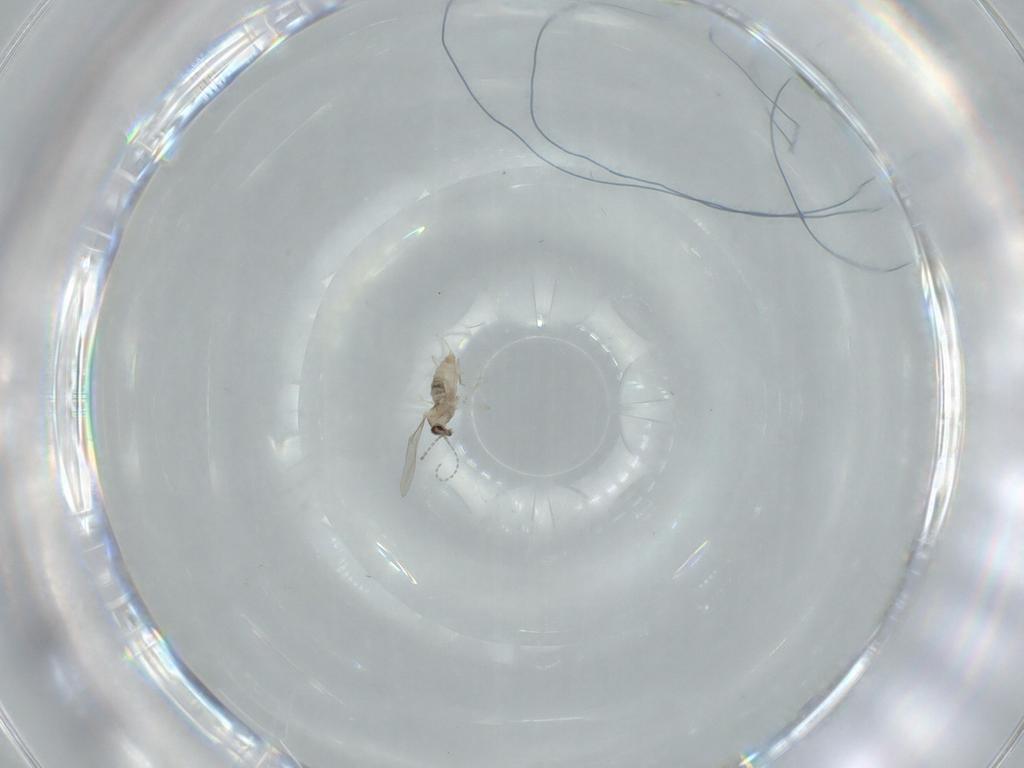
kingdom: Animalia
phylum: Arthropoda
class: Insecta
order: Diptera
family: Cecidomyiidae
